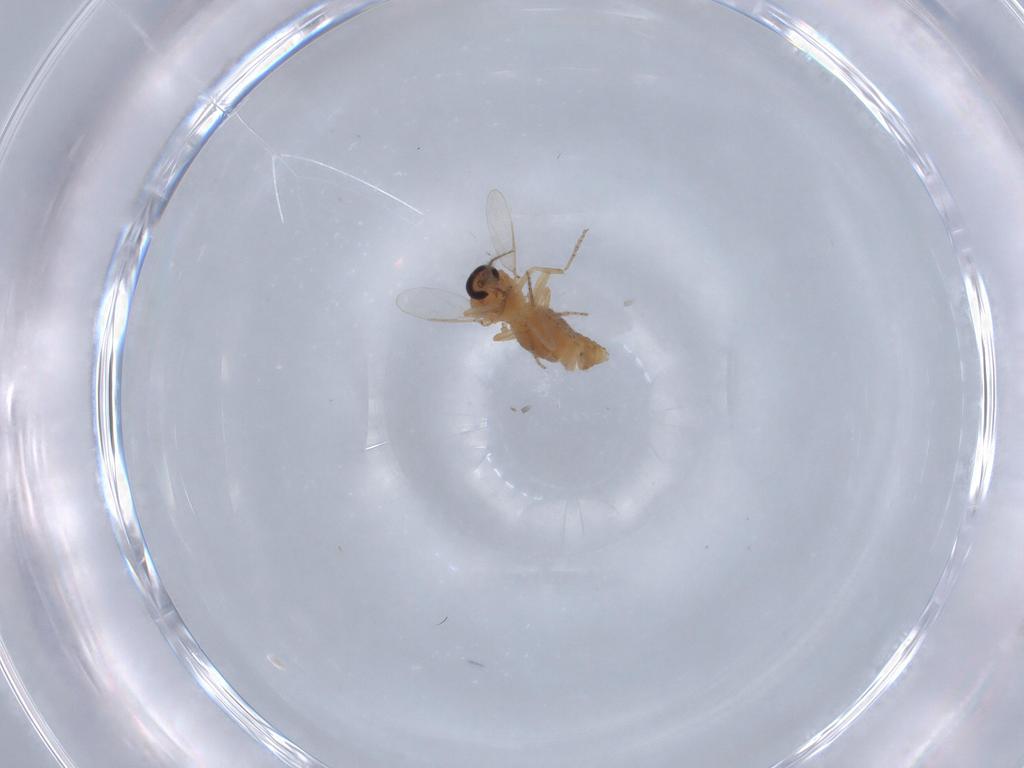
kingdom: Animalia
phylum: Arthropoda
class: Insecta
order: Diptera
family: Ceratopogonidae
